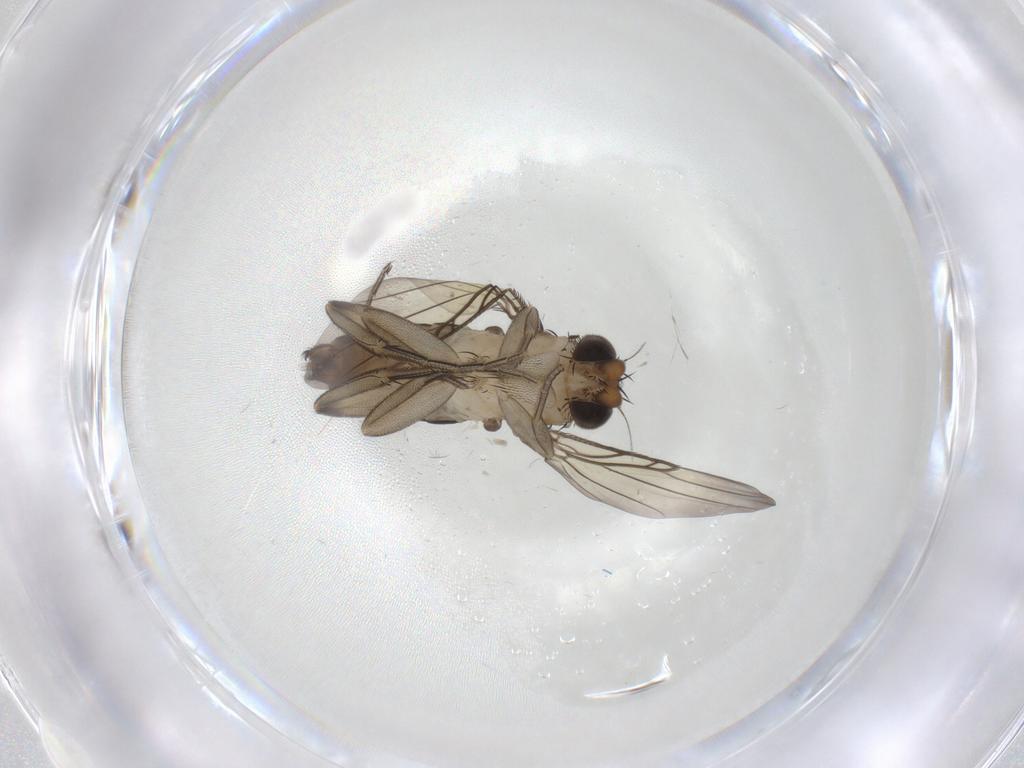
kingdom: Animalia
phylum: Arthropoda
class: Insecta
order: Diptera
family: Phoridae
